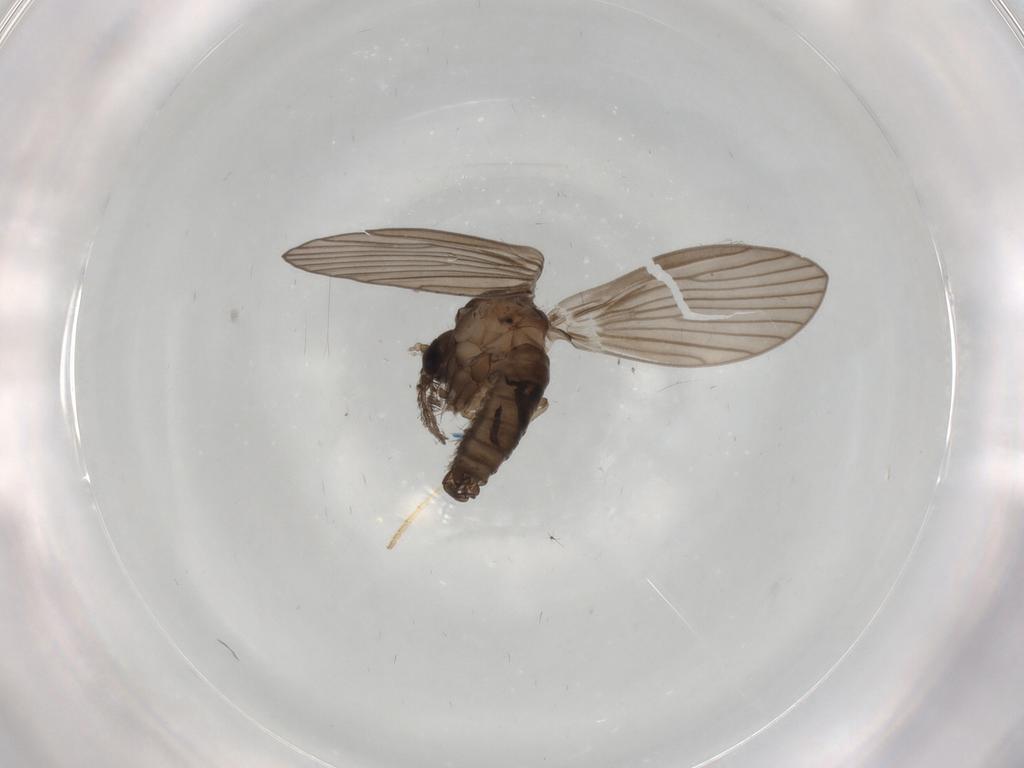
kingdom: Animalia
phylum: Arthropoda
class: Insecta
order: Diptera
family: Psychodidae
